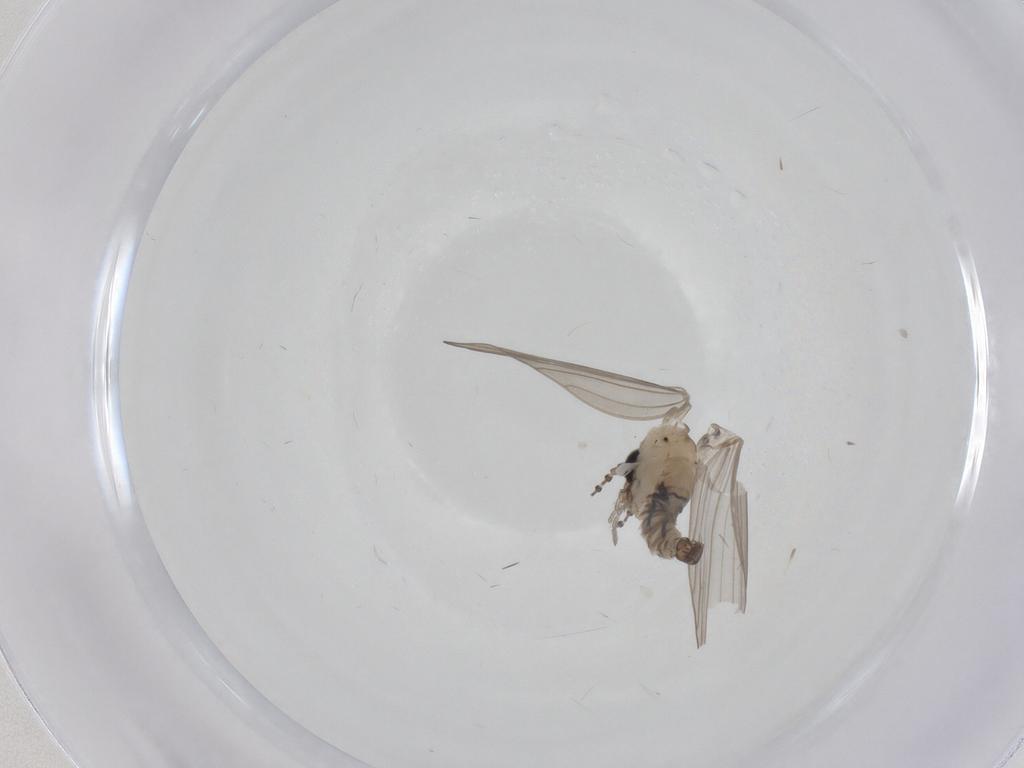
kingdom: Animalia
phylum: Arthropoda
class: Insecta
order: Diptera
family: Psychodidae
